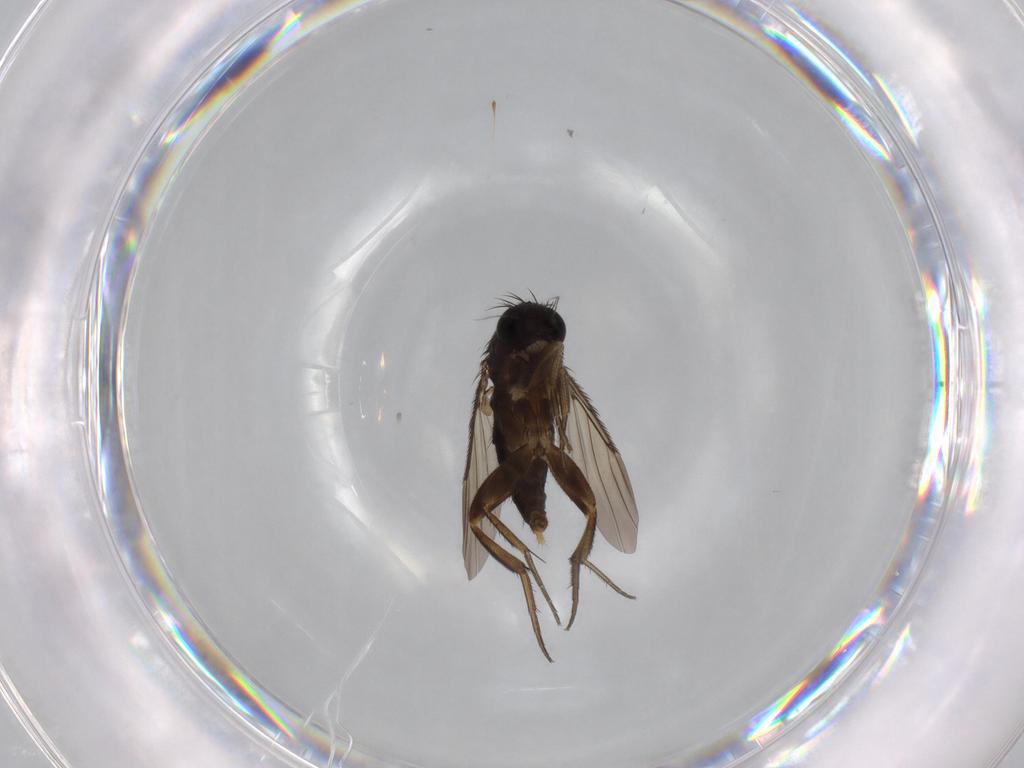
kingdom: Animalia
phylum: Arthropoda
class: Insecta
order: Diptera
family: Phoridae
